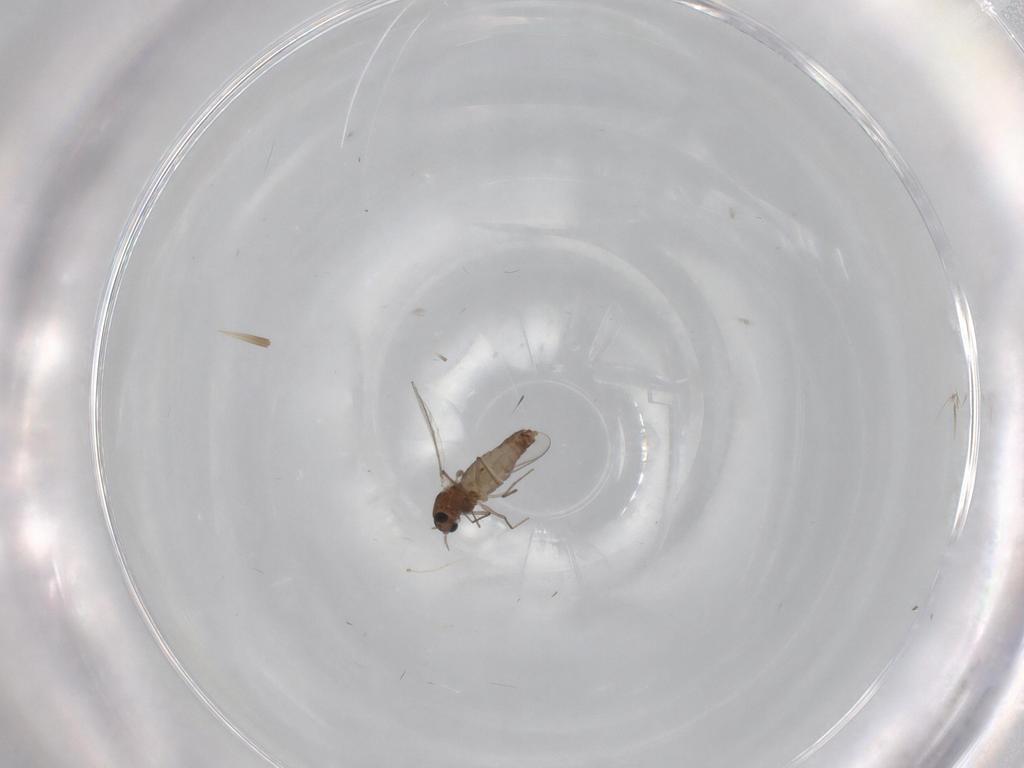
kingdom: Animalia
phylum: Arthropoda
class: Insecta
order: Diptera
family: Chironomidae
